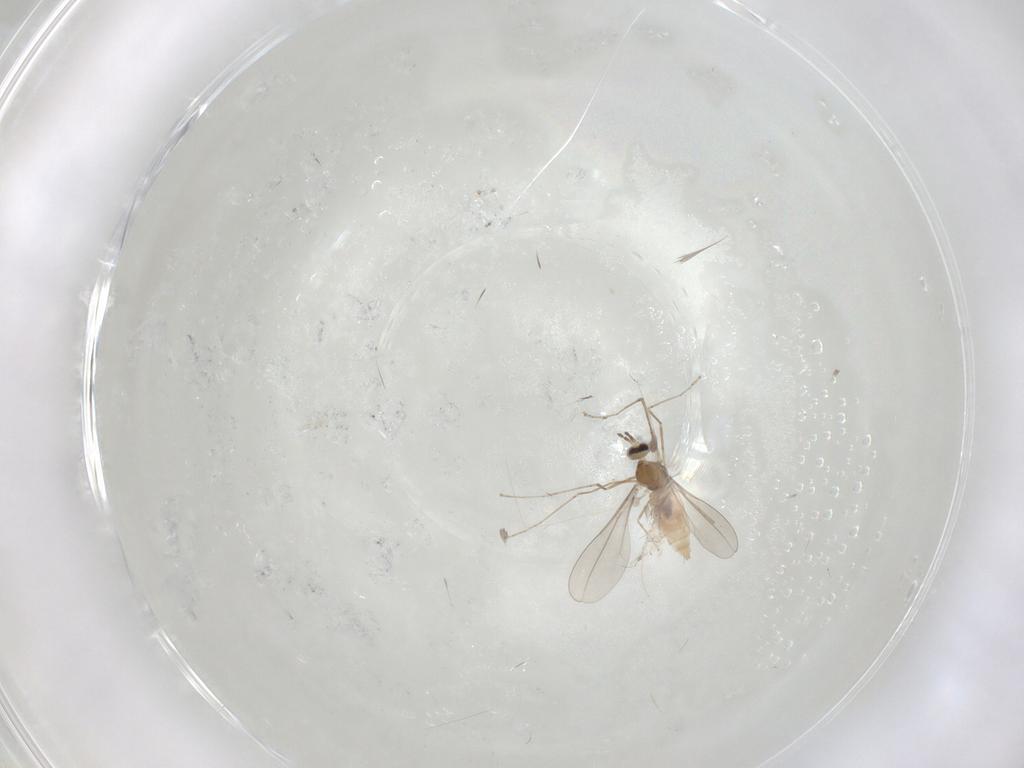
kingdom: Animalia
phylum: Arthropoda
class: Insecta
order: Diptera
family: Cecidomyiidae
